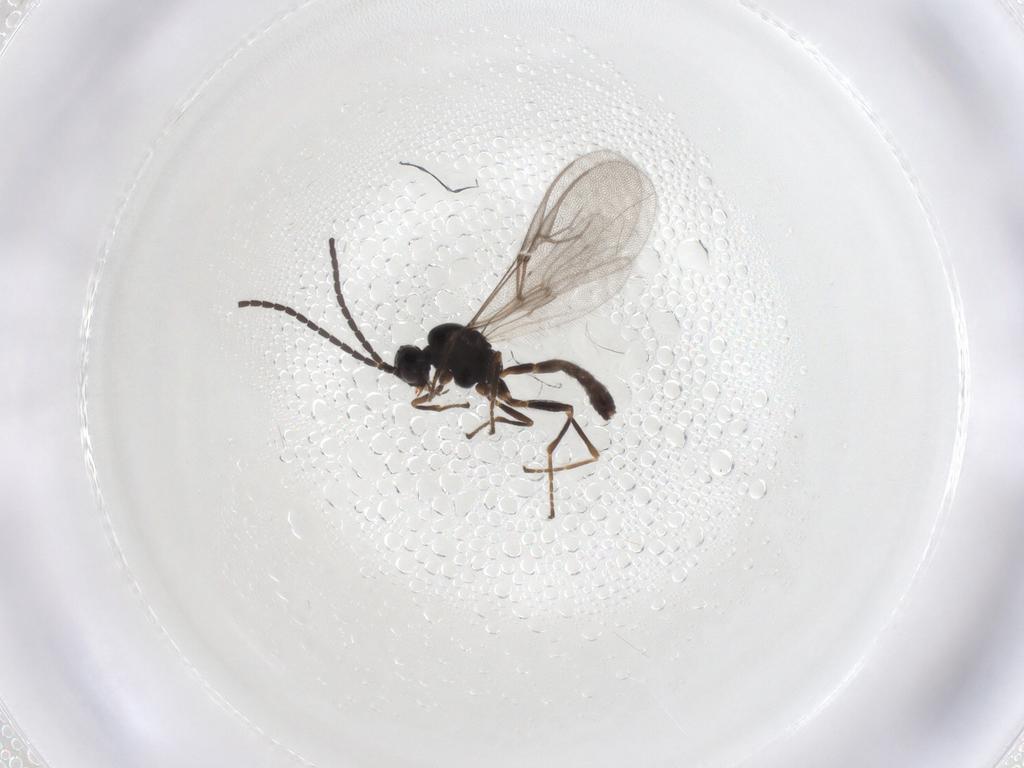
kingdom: Animalia
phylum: Arthropoda
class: Insecta
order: Hymenoptera
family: Braconidae
